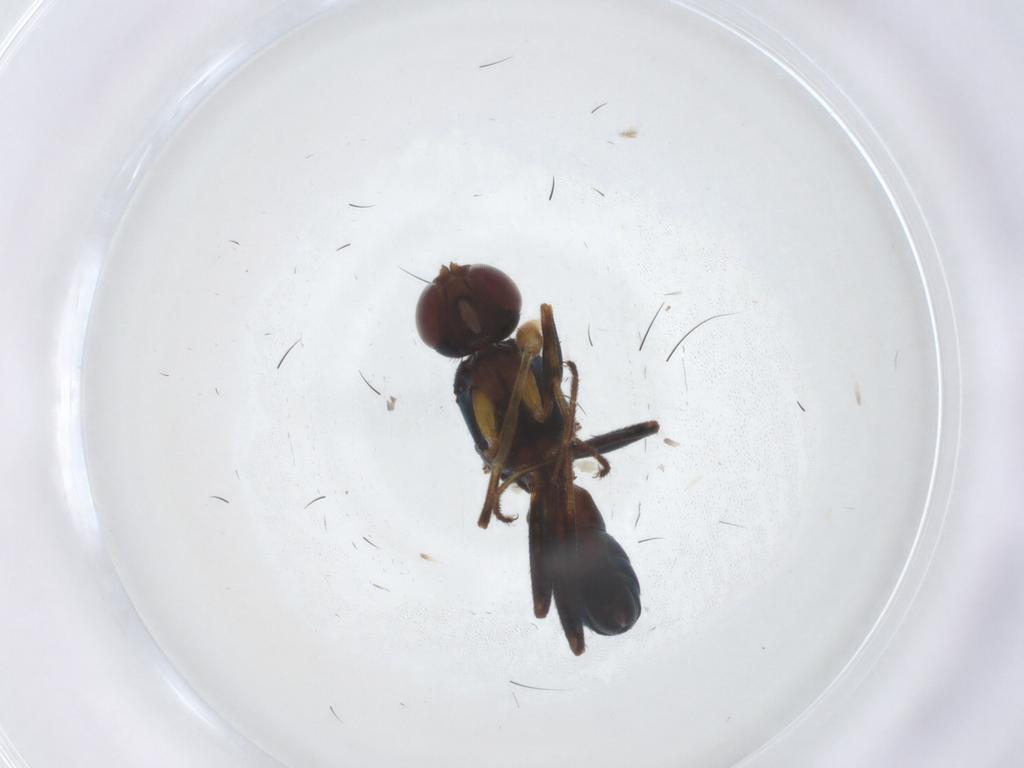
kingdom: Animalia
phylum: Arthropoda
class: Insecta
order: Diptera
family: Sepsidae
